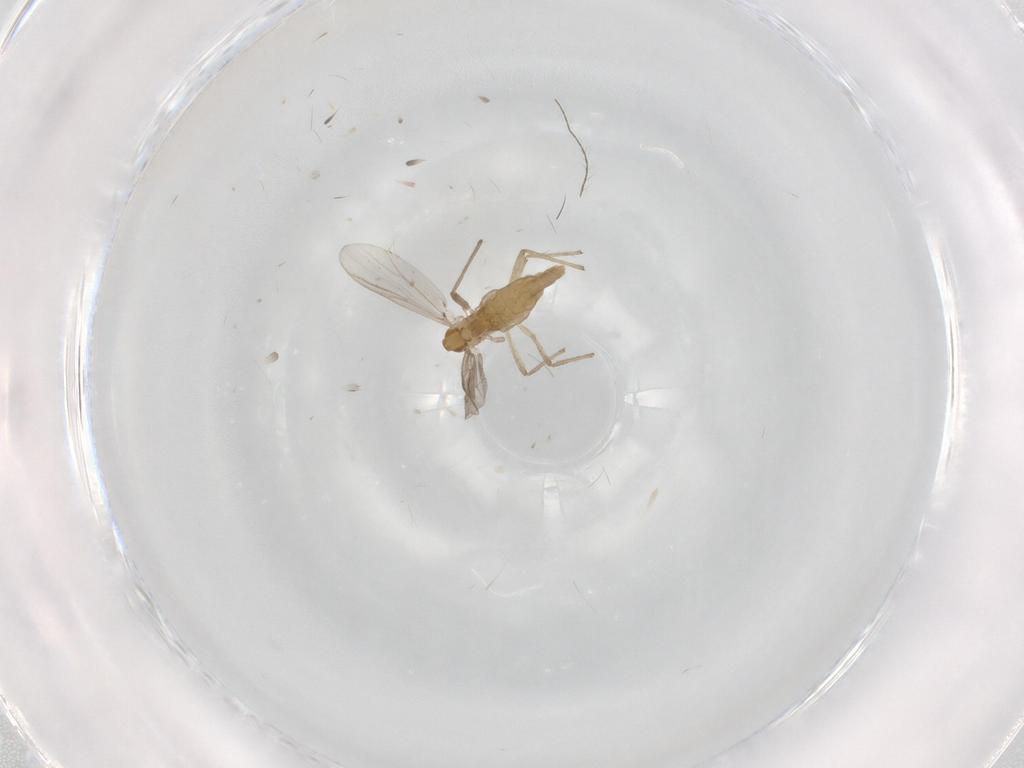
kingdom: Animalia
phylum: Arthropoda
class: Insecta
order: Diptera
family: Chironomidae
